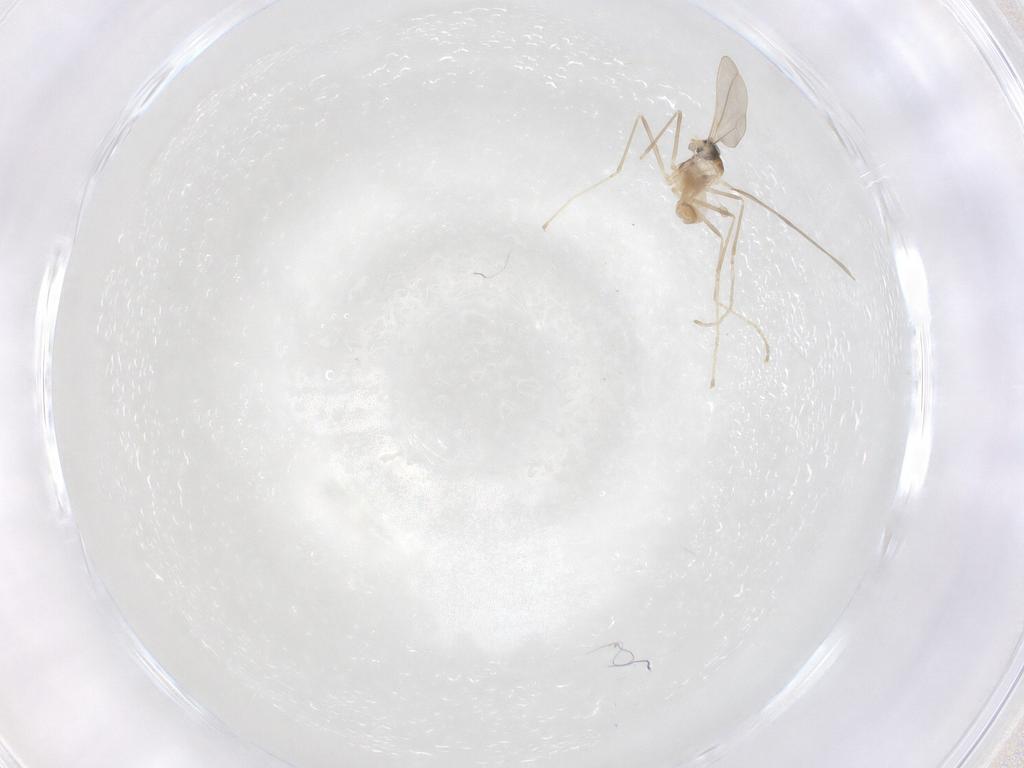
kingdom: Animalia
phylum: Arthropoda
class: Insecta
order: Diptera
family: Cecidomyiidae
